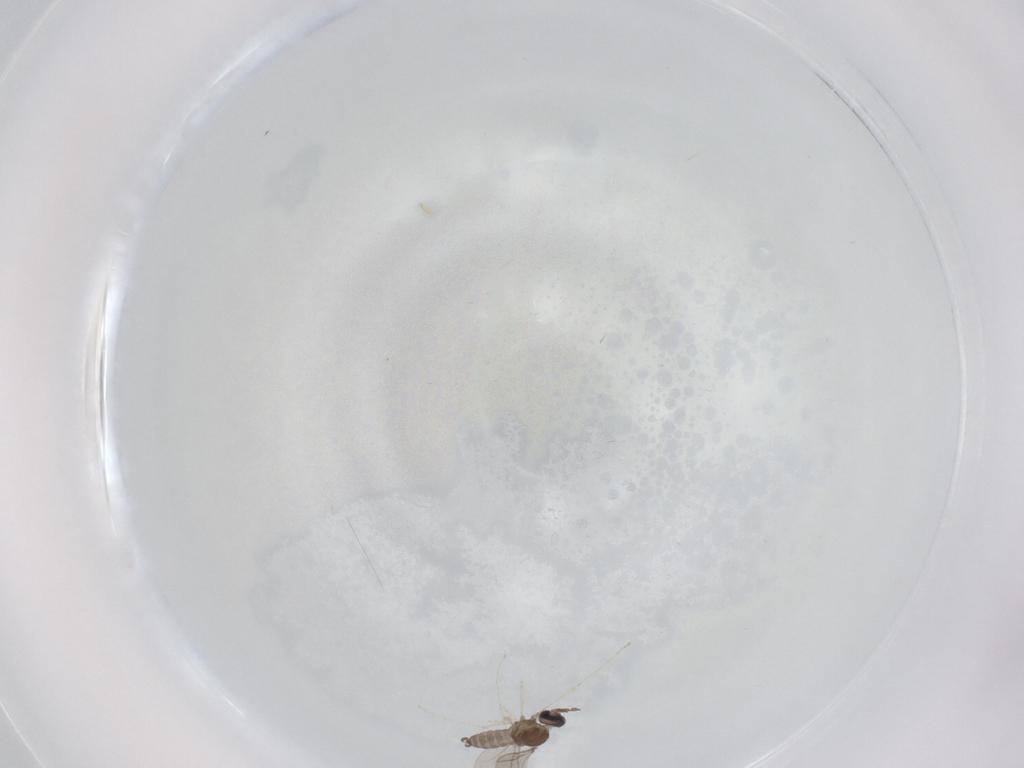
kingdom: Animalia
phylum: Arthropoda
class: Insecta
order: Diptera
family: Cecidomyiidae
